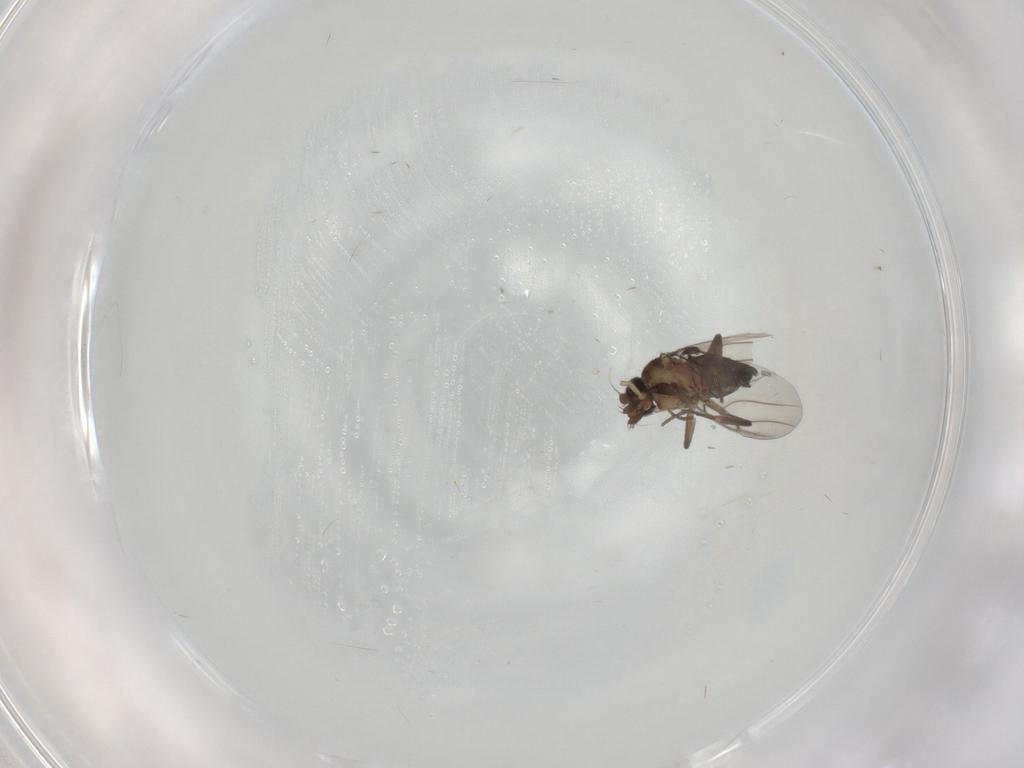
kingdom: Animalia
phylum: Arthropoda
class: Insecta
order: Diptera
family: Phoridae
